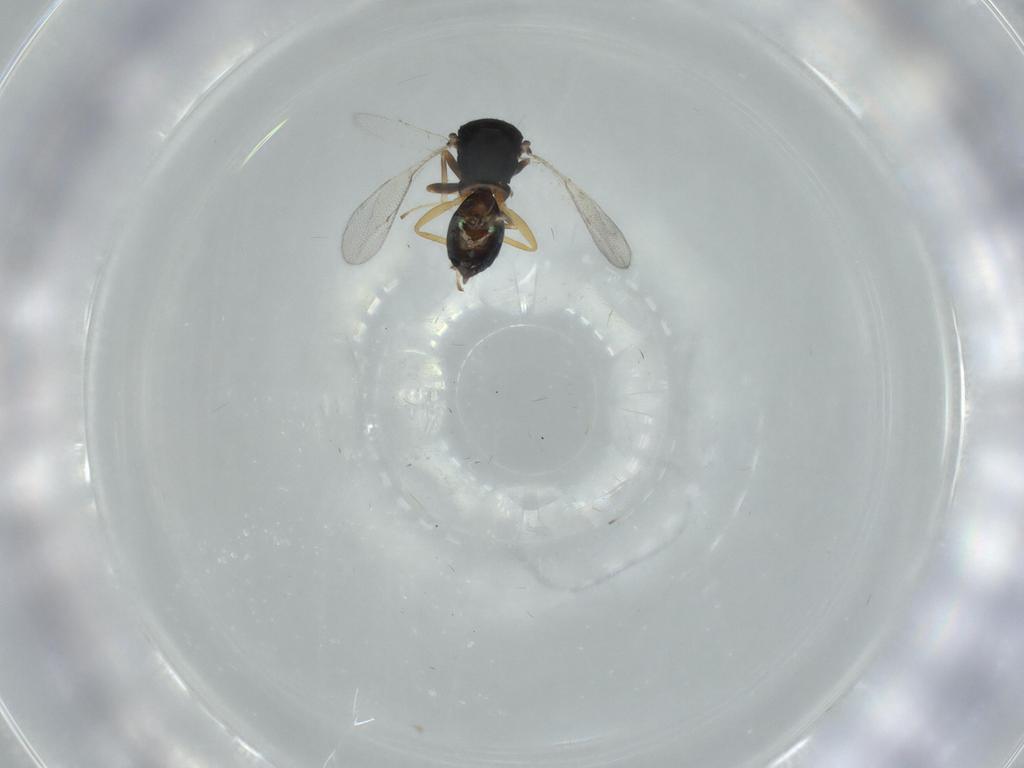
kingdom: Animalia
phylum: Arthropoda
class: Insecta
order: Hymenoptera
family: Pteromalidae
